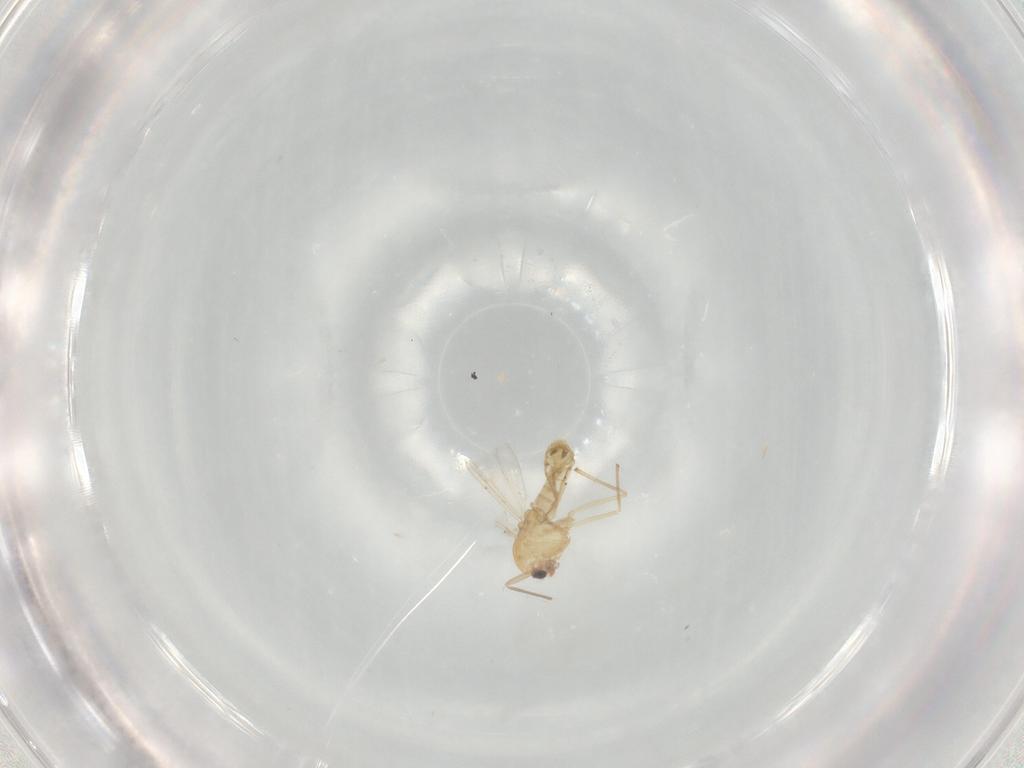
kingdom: Animalia
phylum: Arthropoda
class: Insecta
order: Diptera
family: Chironomidae
